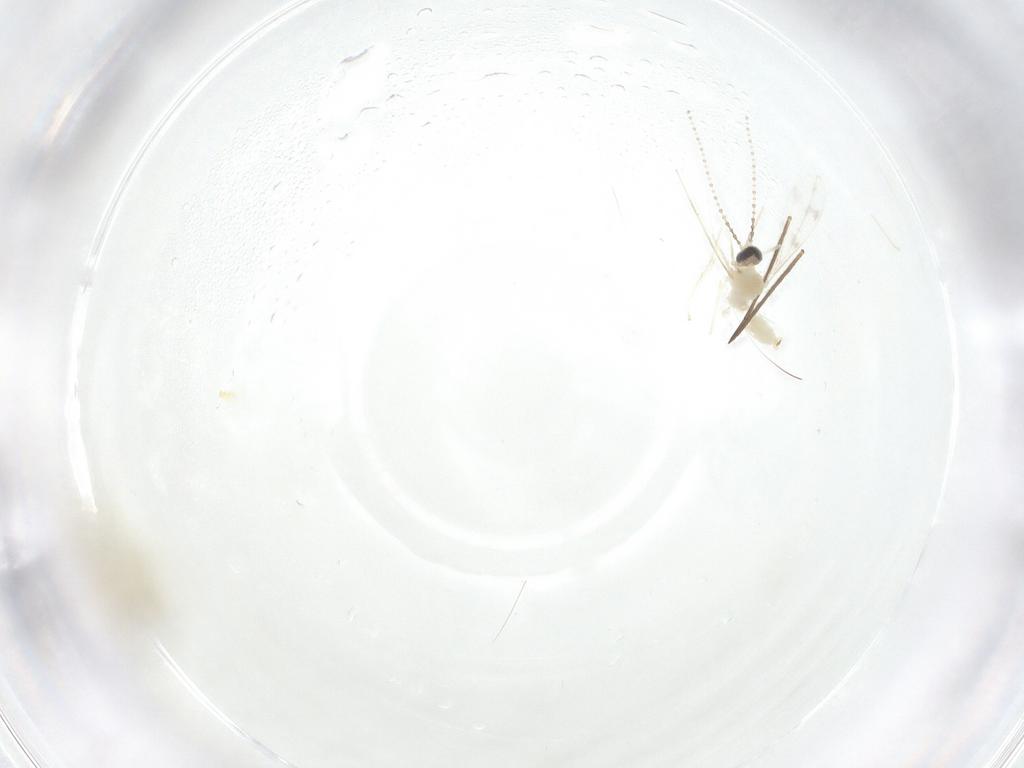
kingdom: Animalia
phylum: Arthropoda
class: Insecta
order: Diptera
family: Cecidomyiidae
